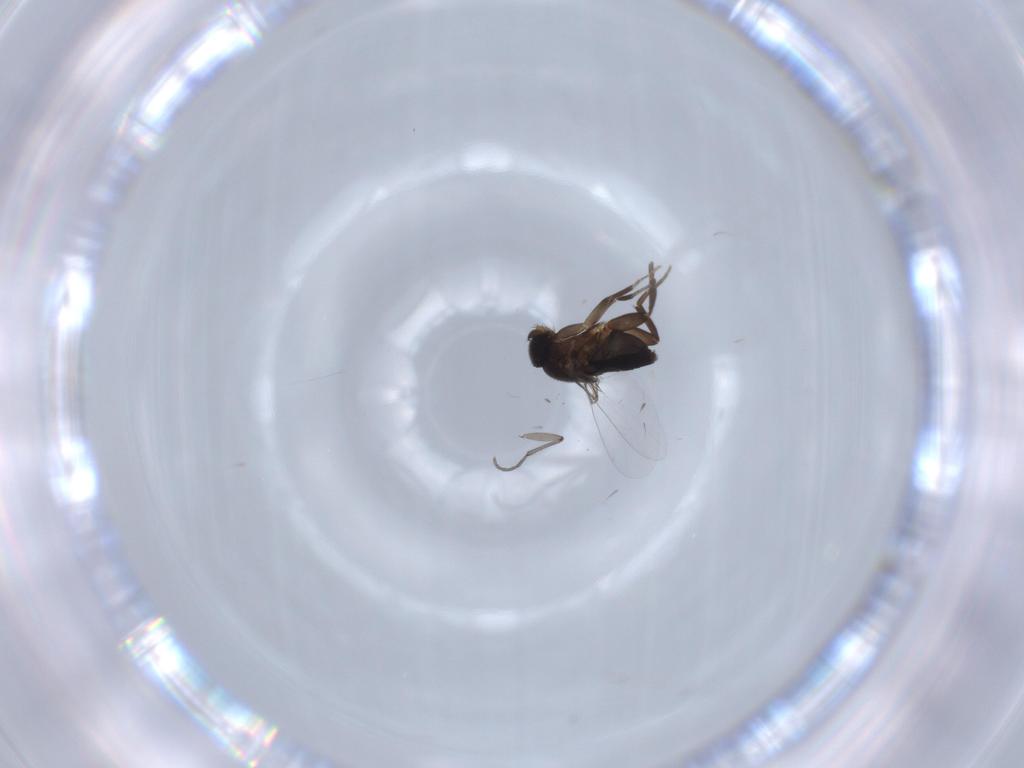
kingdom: Animalia
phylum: Arthropoda
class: Insecta
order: Diptera
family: Phoridae
